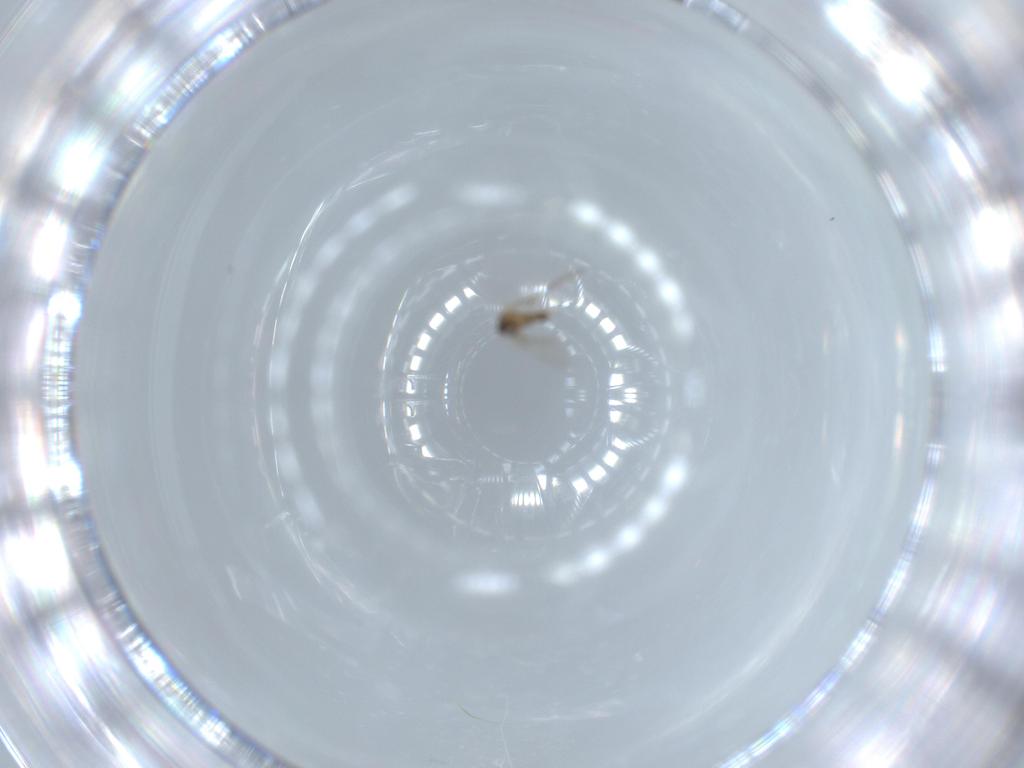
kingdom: Animalia
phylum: Arthropoda
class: Insecta
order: Diptera
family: Cecidomyiidae
